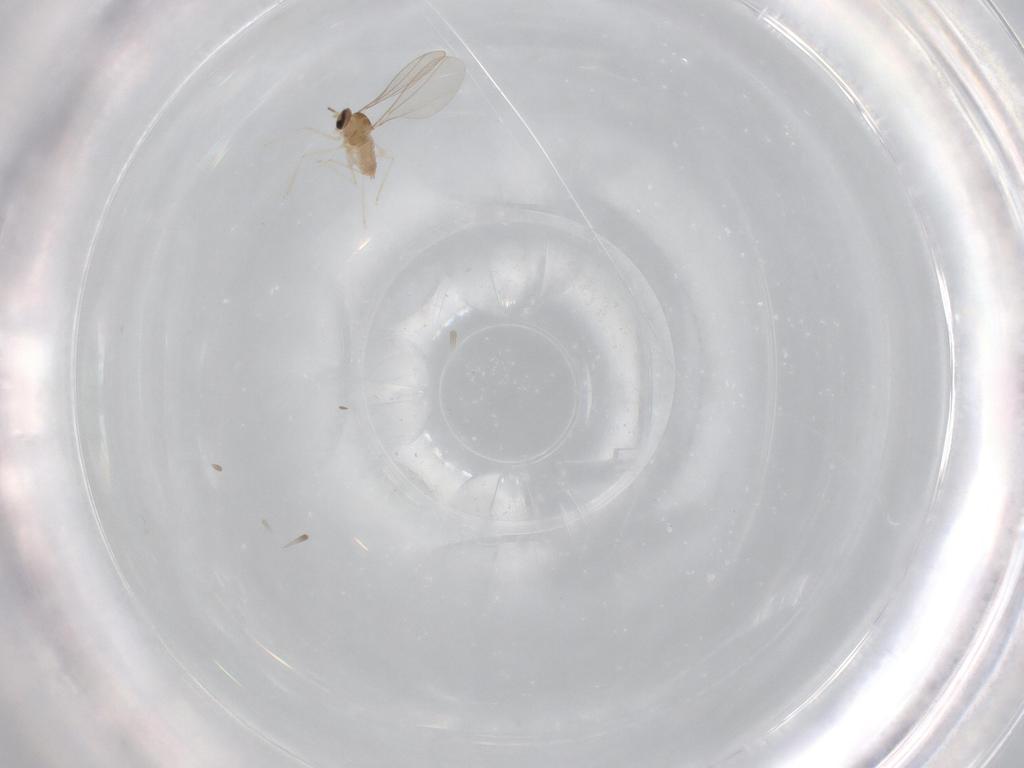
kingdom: Animalia
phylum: Arthropoda
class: Insecta
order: Diptera
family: Cecidomyiidae
